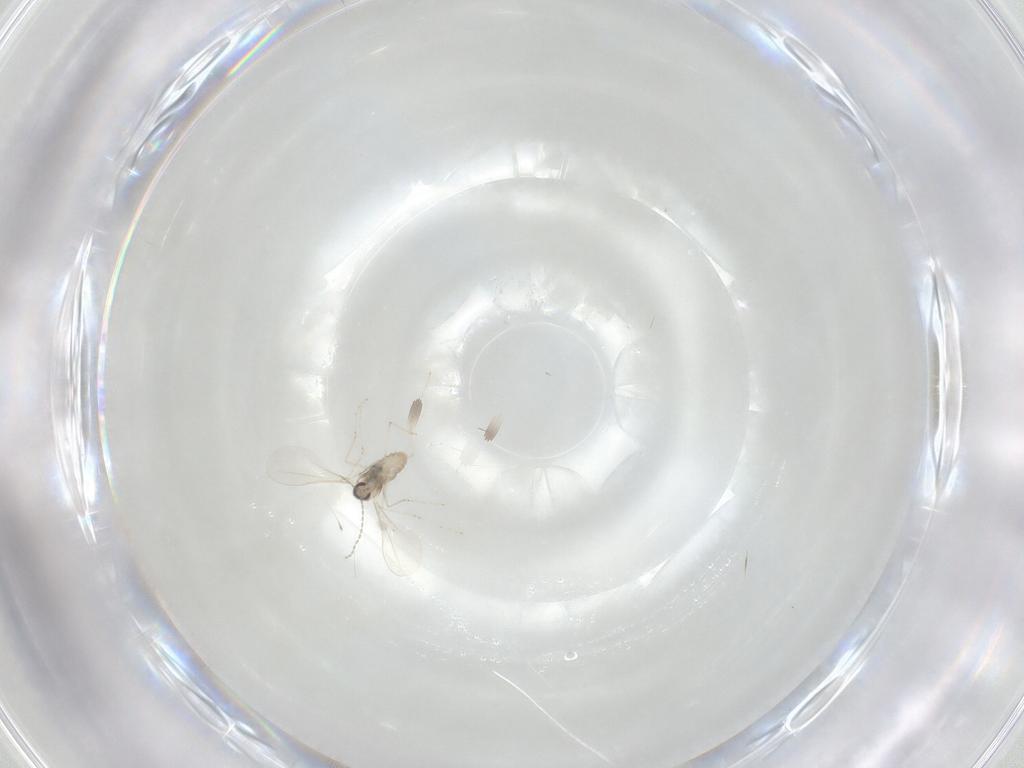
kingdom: Animalia
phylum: Arthropoda
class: Insecta
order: Diptera
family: Cecidomyiidae
